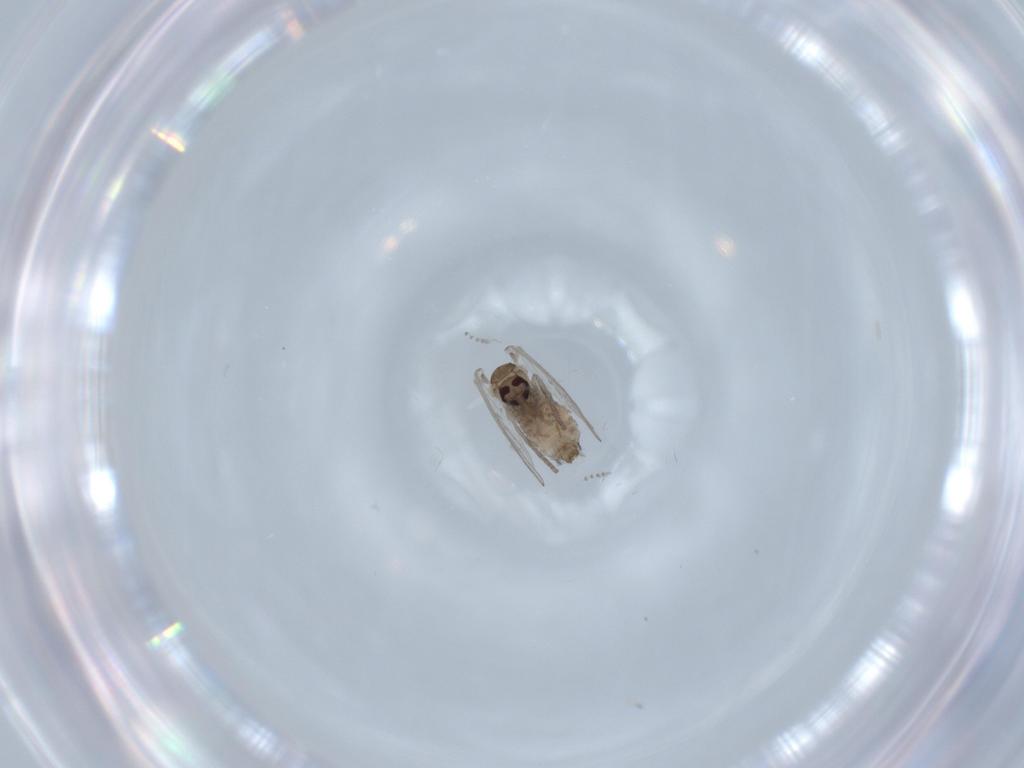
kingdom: Animalia
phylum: Arthropoda
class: Insecta
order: Diptera
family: Psychodidae
